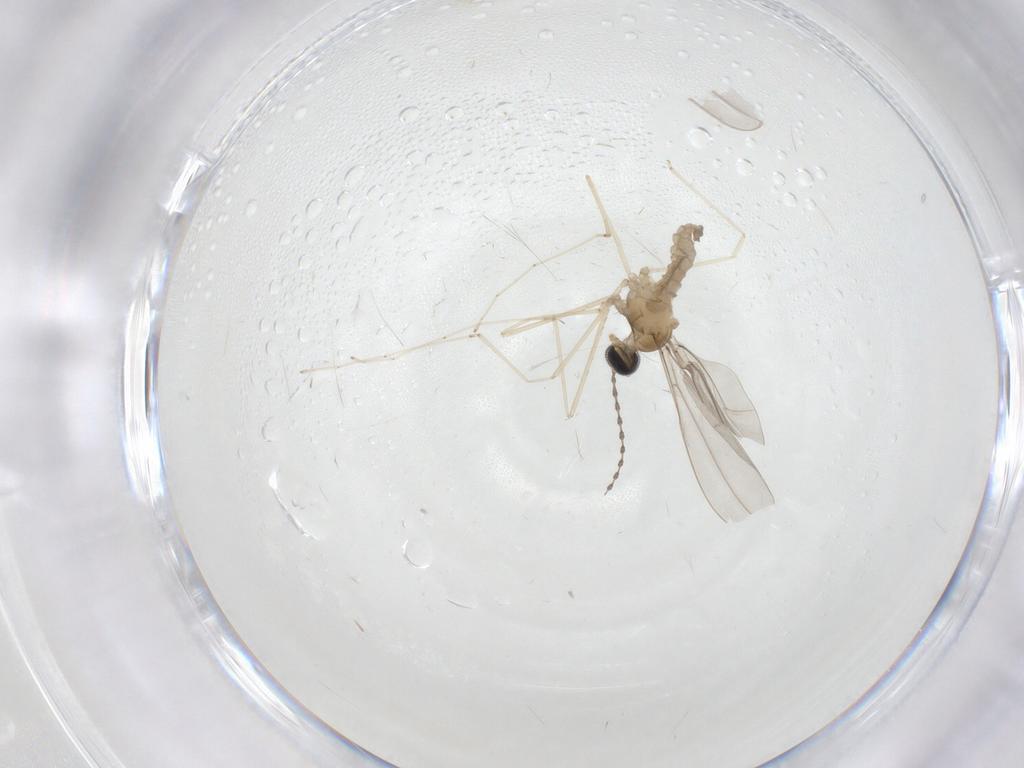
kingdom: Animalia
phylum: Arthropoda
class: Insecta
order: Diptera
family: Cecidomyiidae
